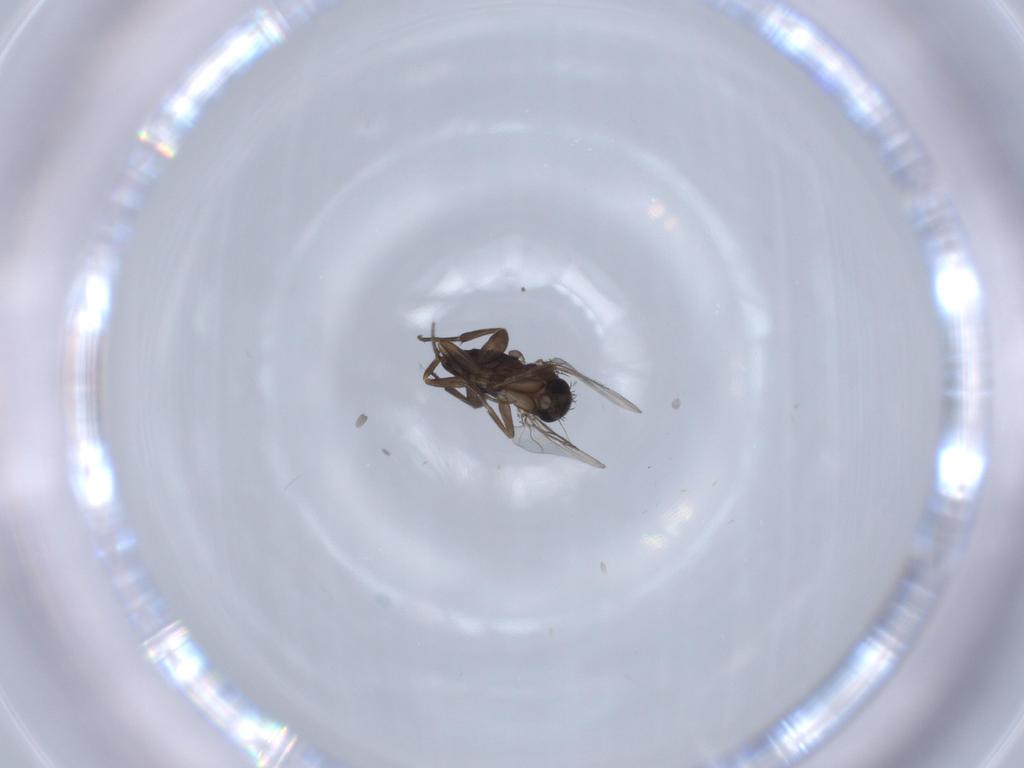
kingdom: Animalia
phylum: Arthropoda
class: Insecta
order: Diptera
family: Phoridae
